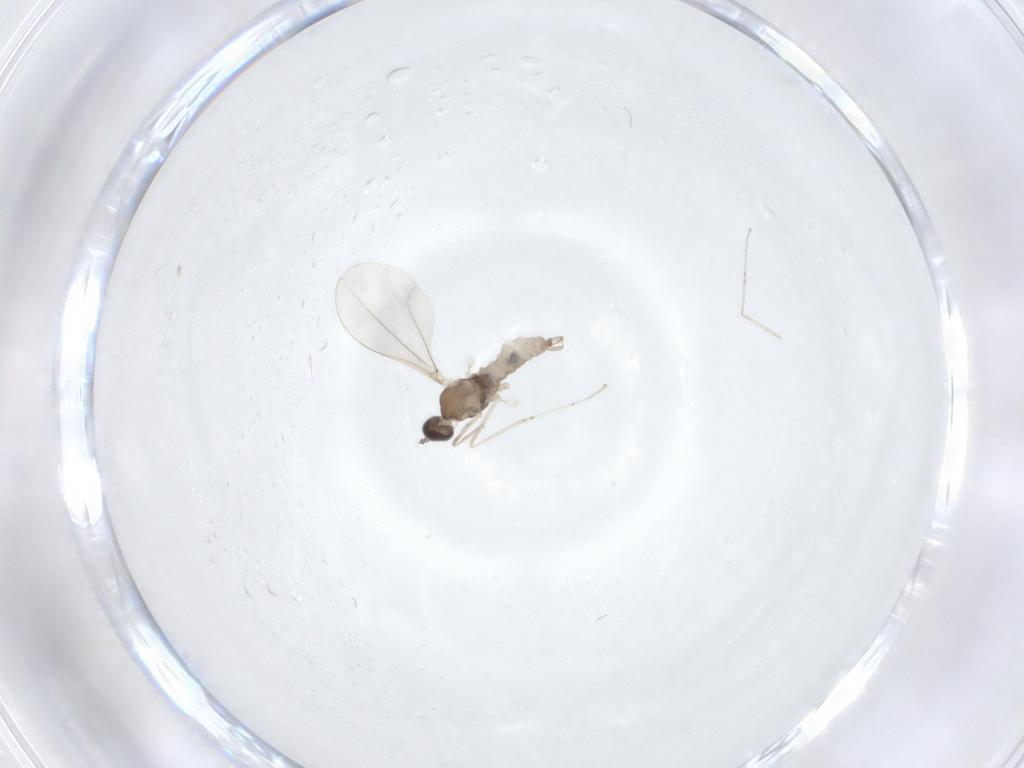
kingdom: Animalia
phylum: Arthropoda
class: Insecta
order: Diptera
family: Cecidomyiidae
